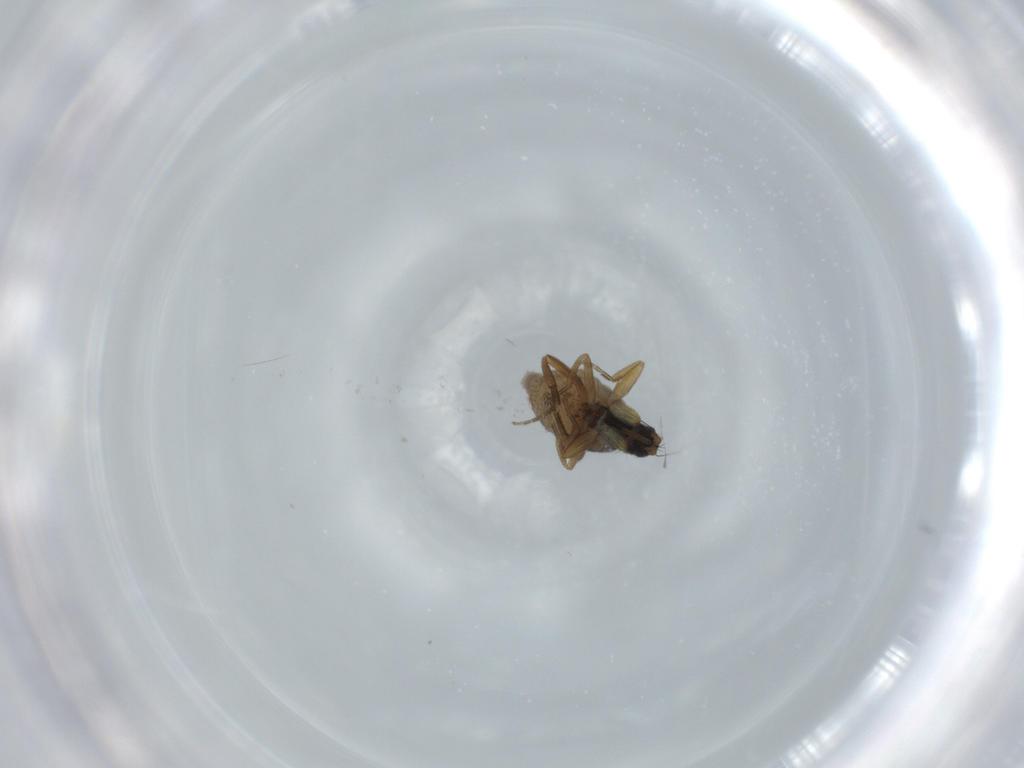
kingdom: Animalia
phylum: Arthropoda
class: Insecta
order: Diptera
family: Phoridae
